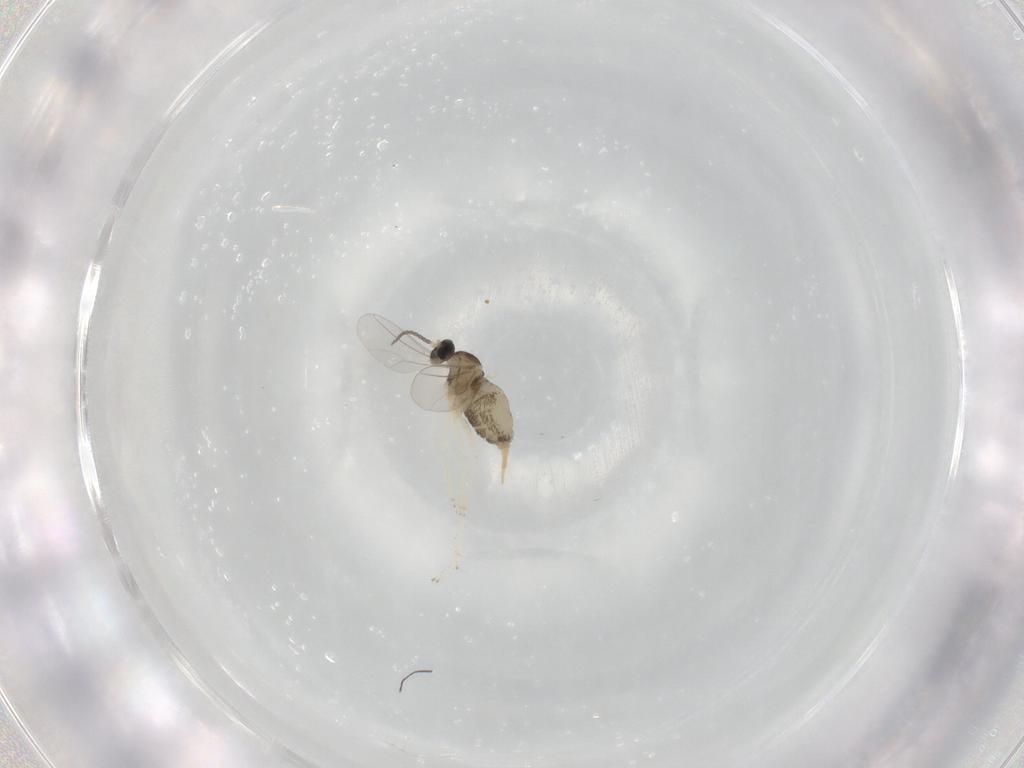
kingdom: Animalia
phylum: Arthropoda
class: Insecta
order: Diptera
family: Cecidomyiidae
